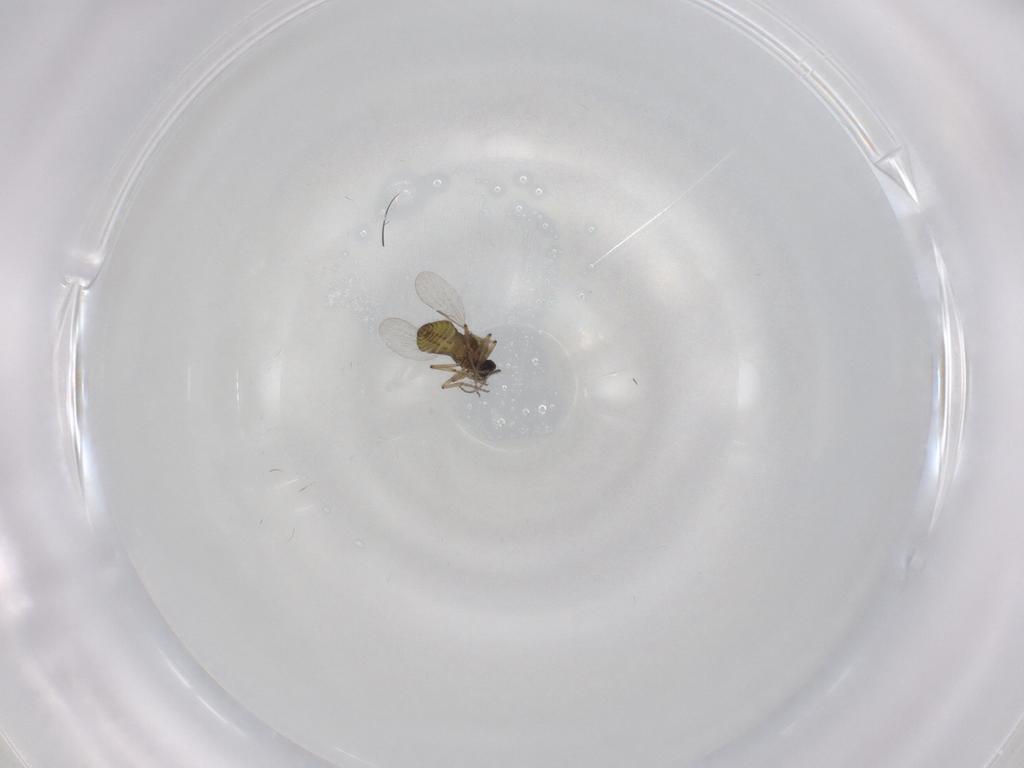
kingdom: Animalia
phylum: Arthropoda
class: Insecta
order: Diptera
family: Ceratopogonidae
